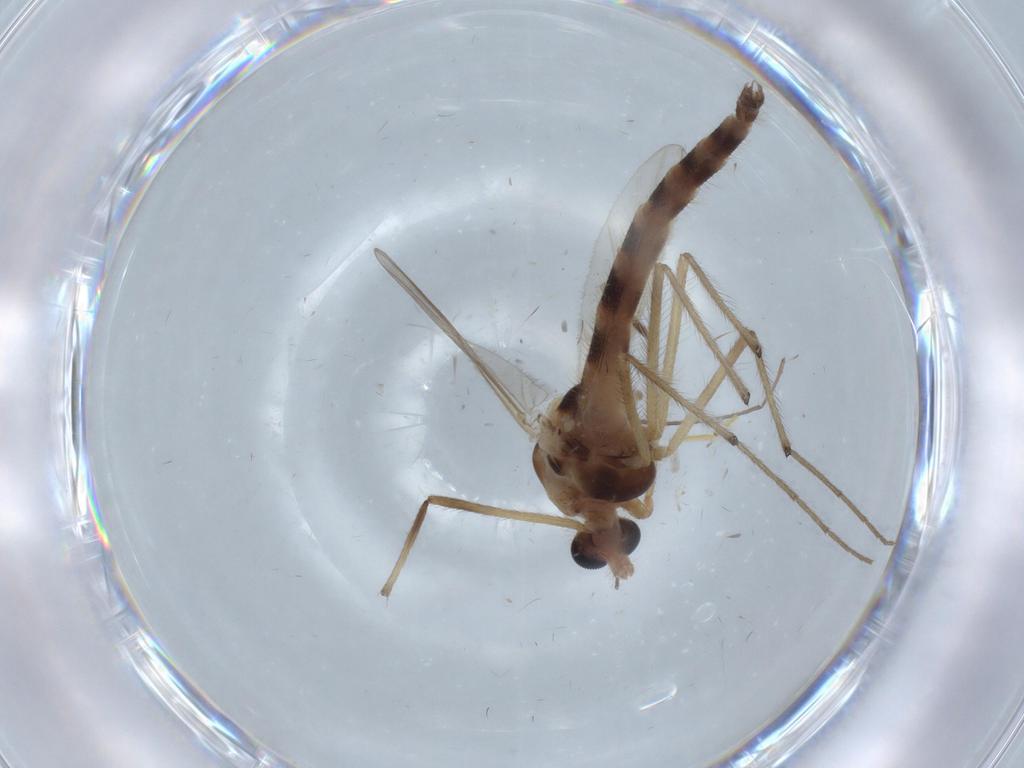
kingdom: Animalia
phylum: Arthropoda
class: Insecta
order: Diptera
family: Chironomidae
